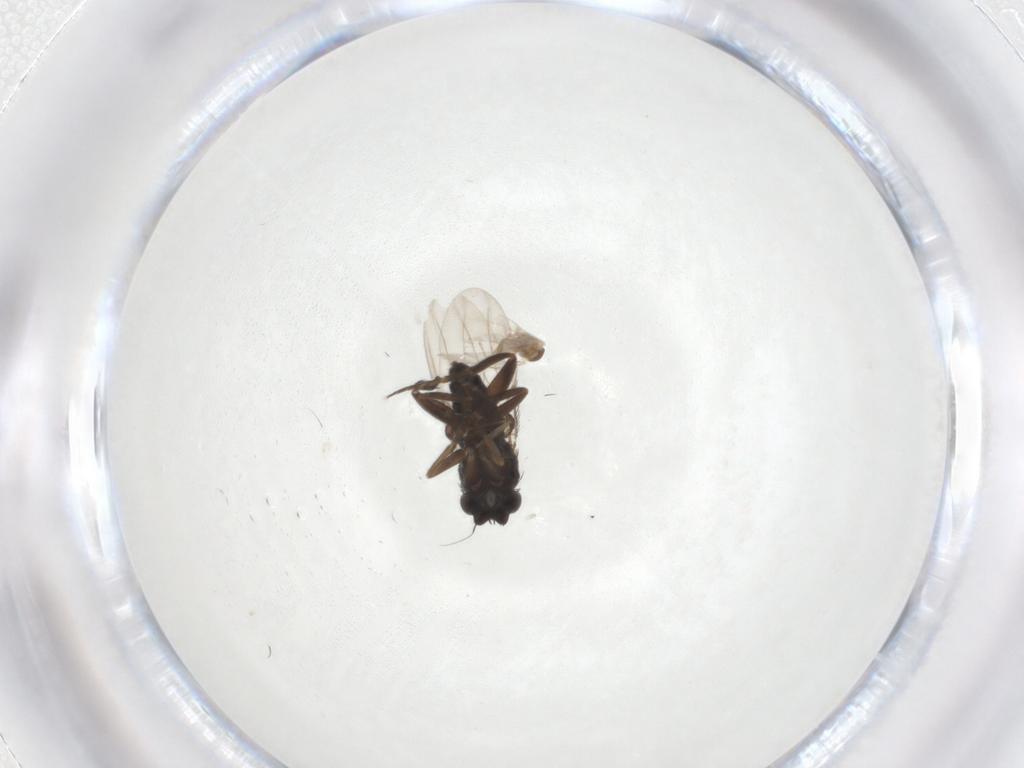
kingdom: Animalia
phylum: Arthropoda
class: Insecta
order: Diptera
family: Cecidomyiidae
